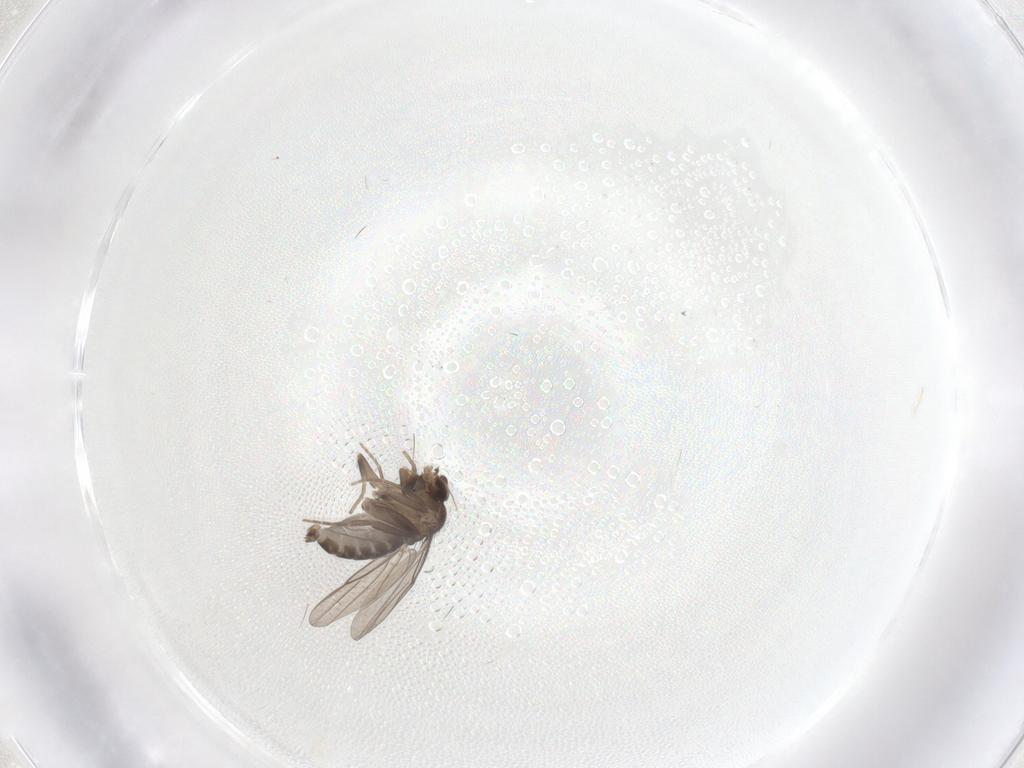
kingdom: Animalia
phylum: Arthropoda
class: Insecta
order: Diptera
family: Phoridae
